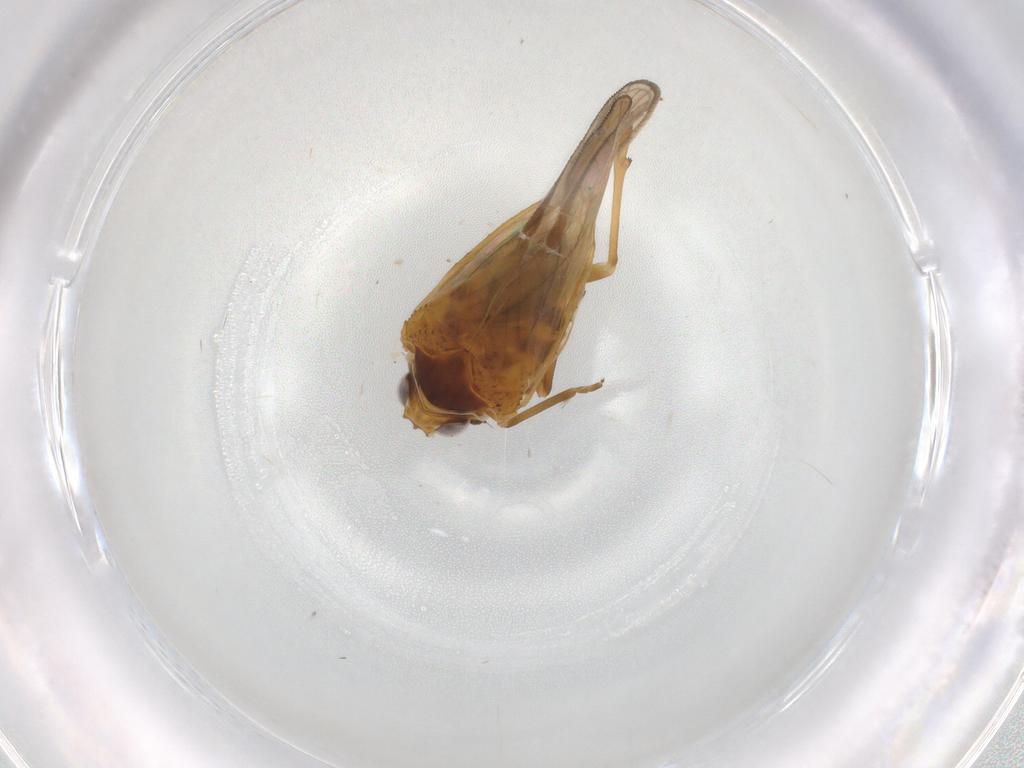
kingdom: Animalia
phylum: Arthropoda
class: Insecta
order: Hemiptera
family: Meenoplidae
